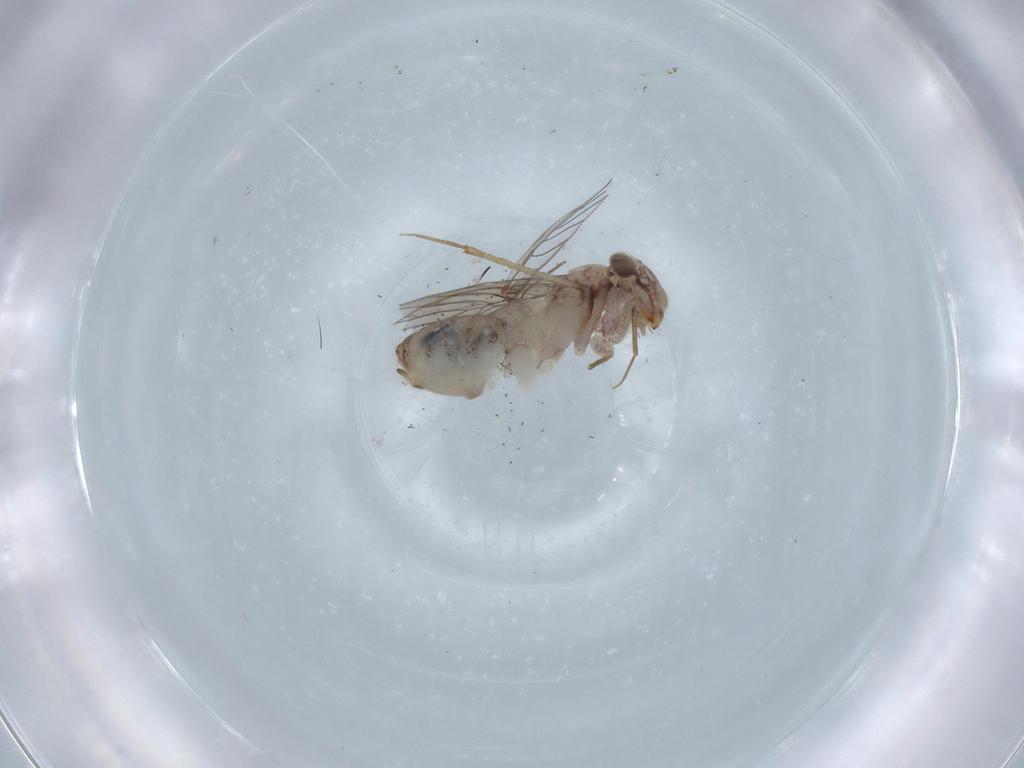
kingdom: Animalia
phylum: Arthropoda
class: Insecta
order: Psocodea
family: Lepidopsocidae
